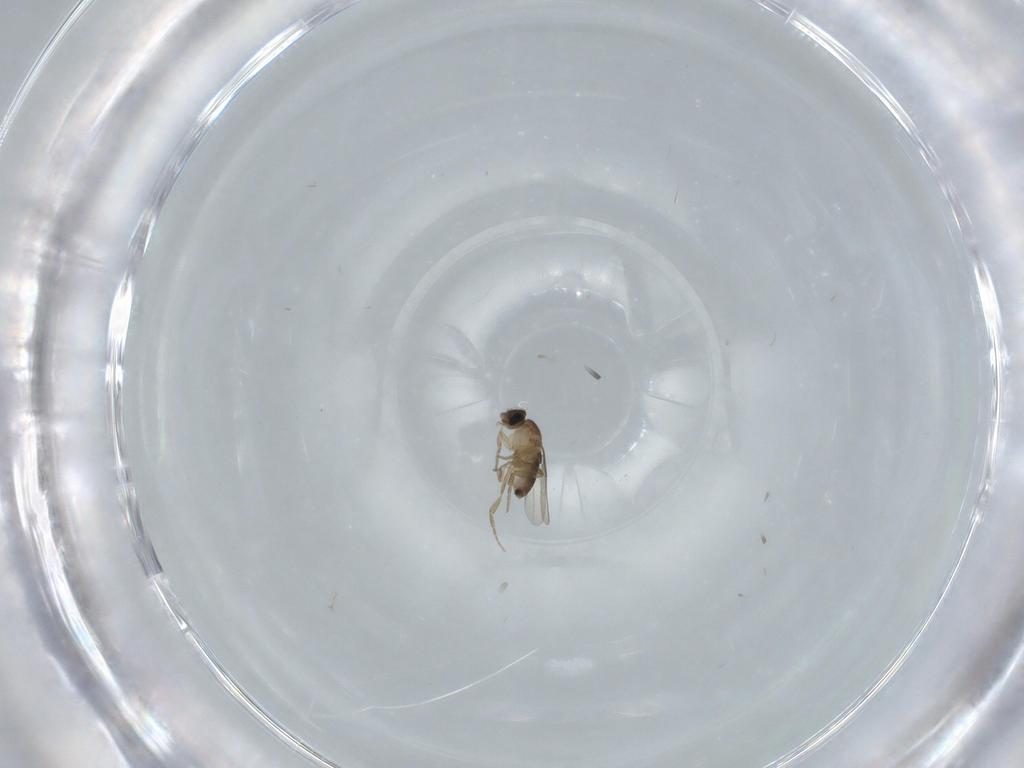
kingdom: Animalia
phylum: Arthropoda
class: Insecta
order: Diptera
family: Phoridae
